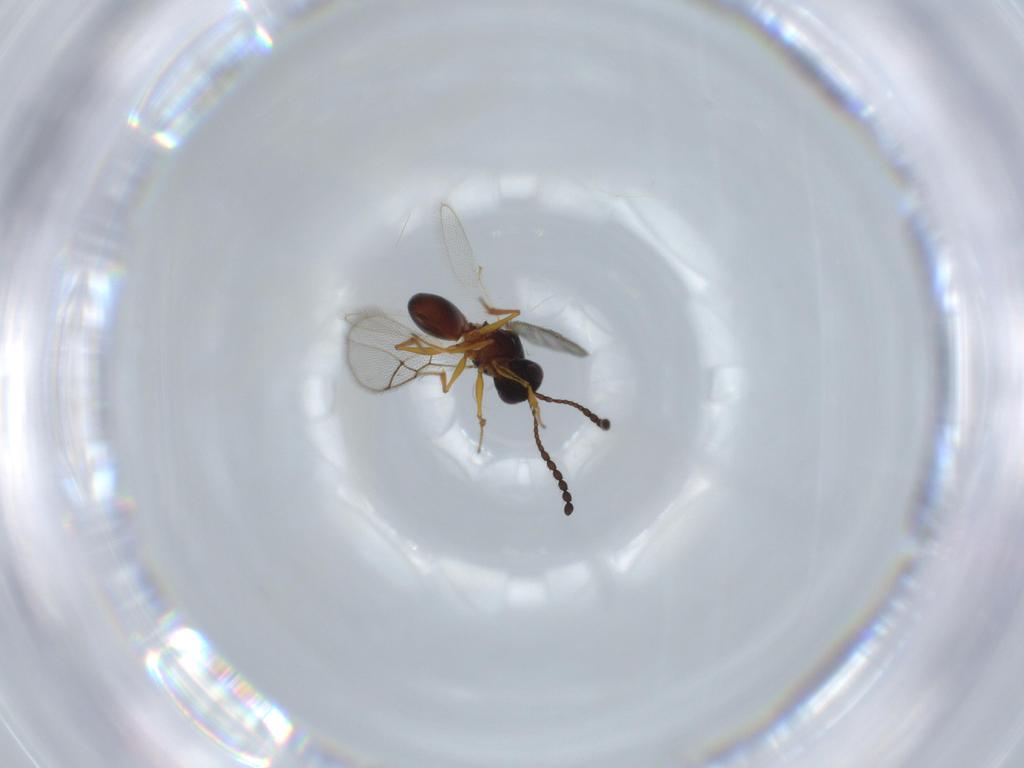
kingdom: Animalia
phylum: Arthropoda
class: Insecta
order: Hymenoptera
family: Figitidae
